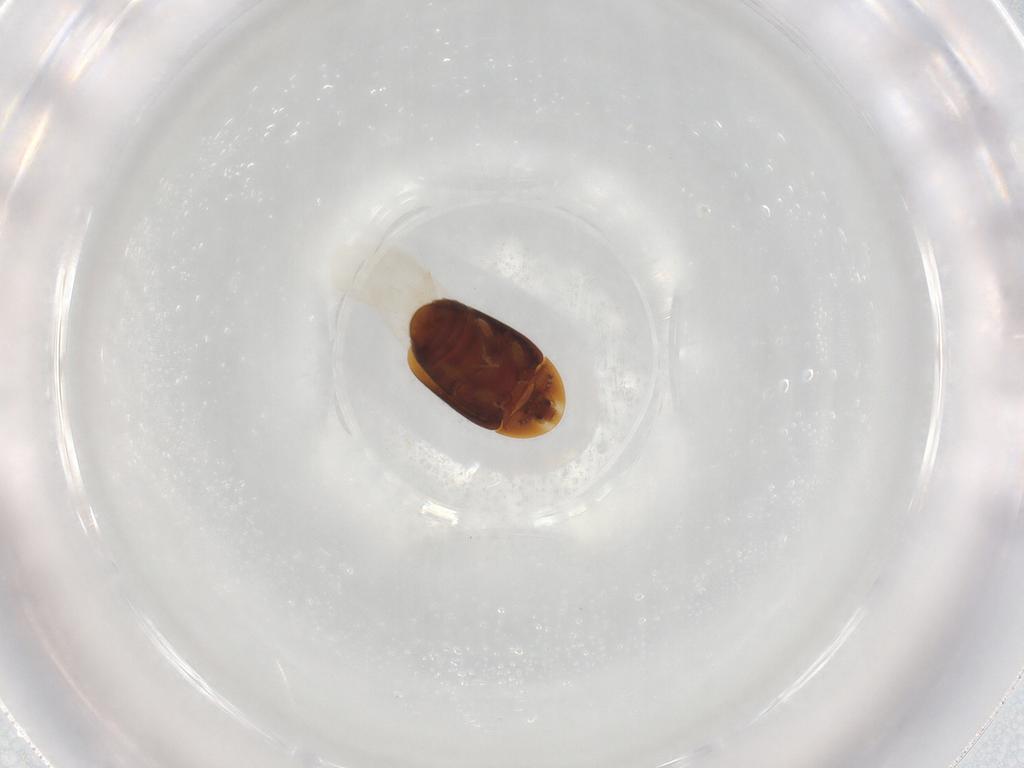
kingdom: Animalia
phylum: Arthropoda
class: Insecta
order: Coleoptera
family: Corylophidae
